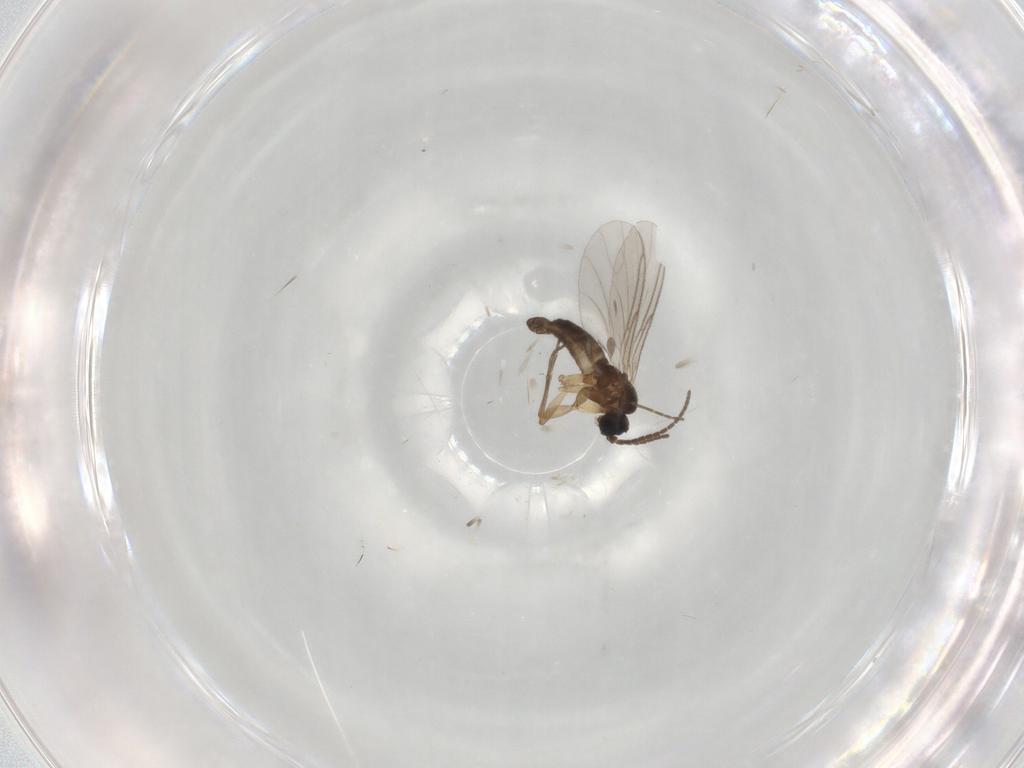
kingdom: Animalia
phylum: Arthropoda
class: Insecta
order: Diptera
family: Sciaridae
